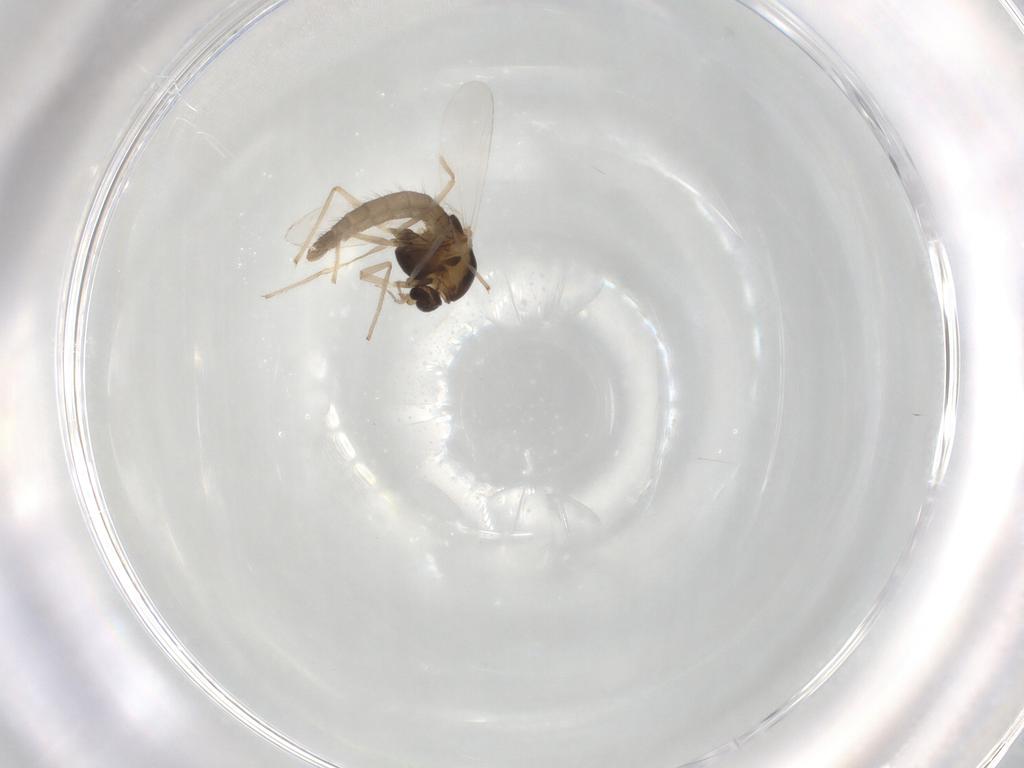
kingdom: Animalia
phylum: Arthropoda
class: Insecta
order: Diptera
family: Chironomidae
